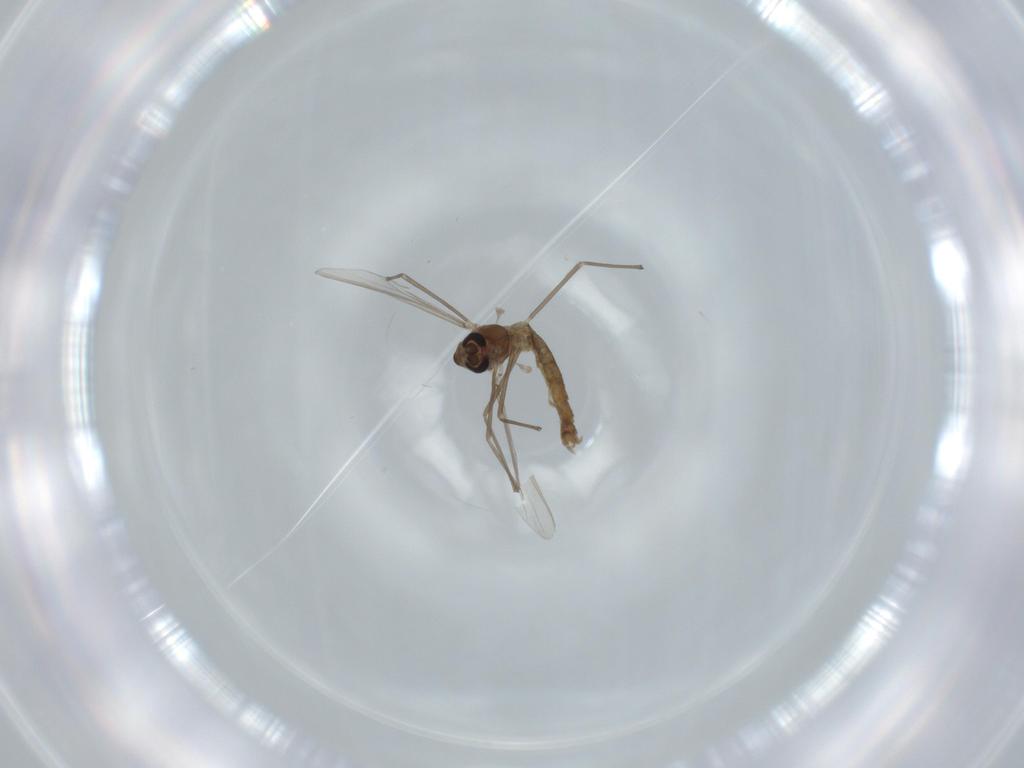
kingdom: Animalia
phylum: Arthropoda
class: Insecta
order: Diptera
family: Chironomidae
